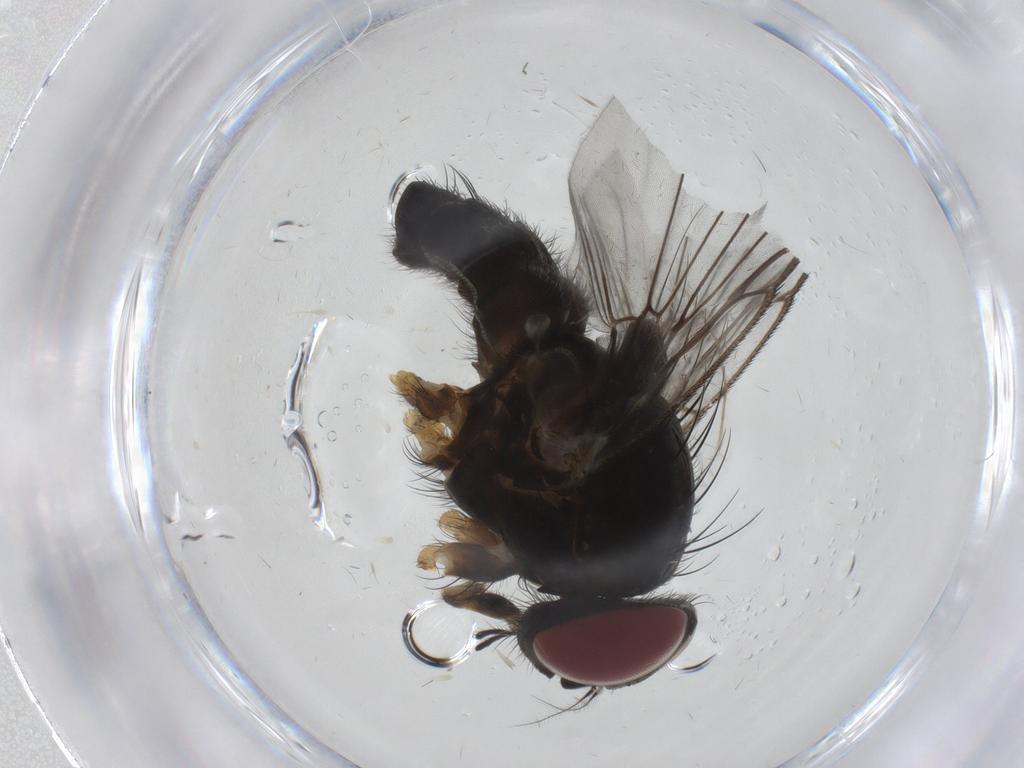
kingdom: Animalia
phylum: Arthropoda
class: Insecta
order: Diptera
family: Muscidae
